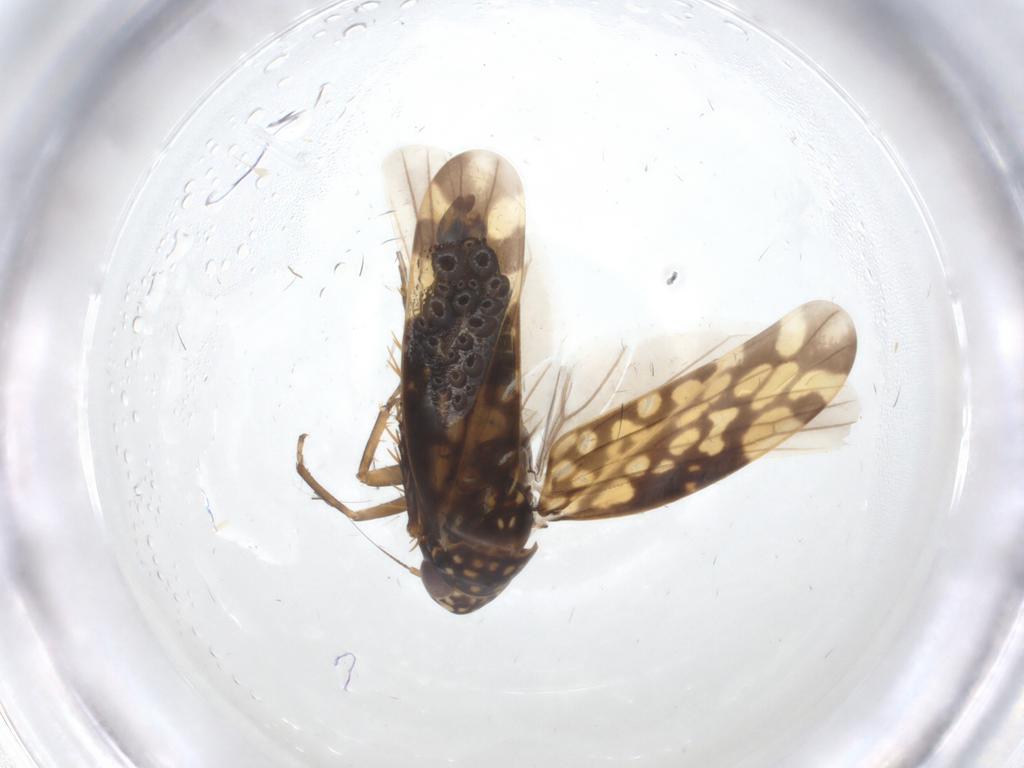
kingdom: Animalia
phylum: Arthropoda
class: Insecta
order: Hemiptera
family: Cicadellidae
